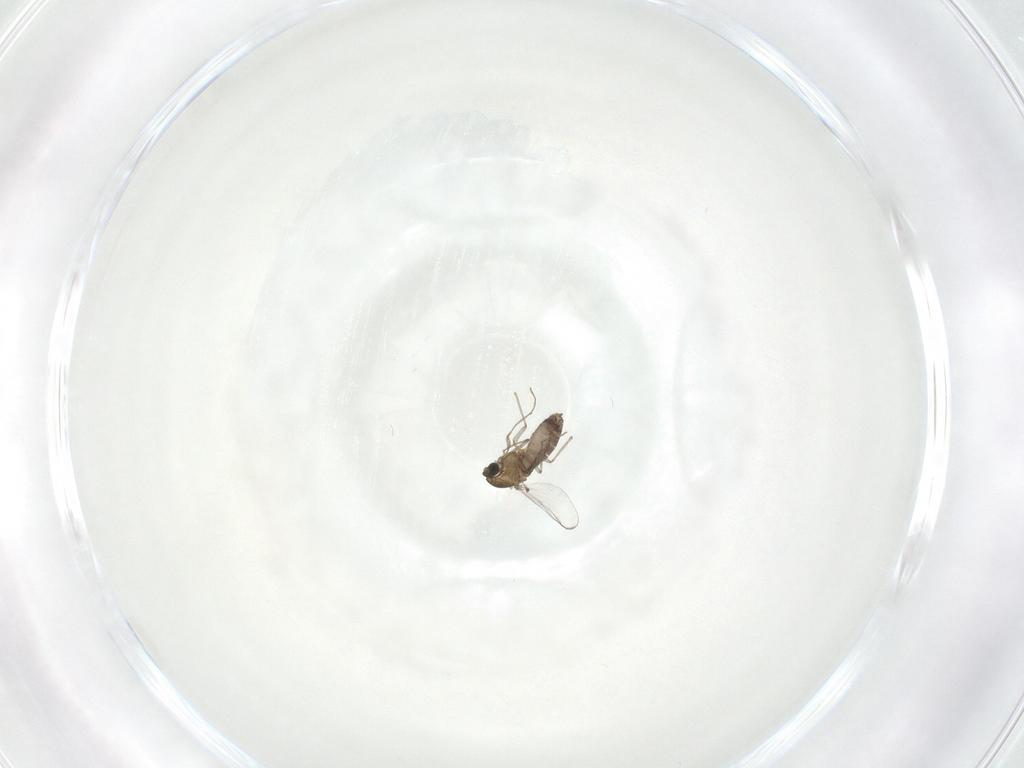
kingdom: Animalia
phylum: Arthropoda
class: Insecta
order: Diptera
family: Chironomidae
